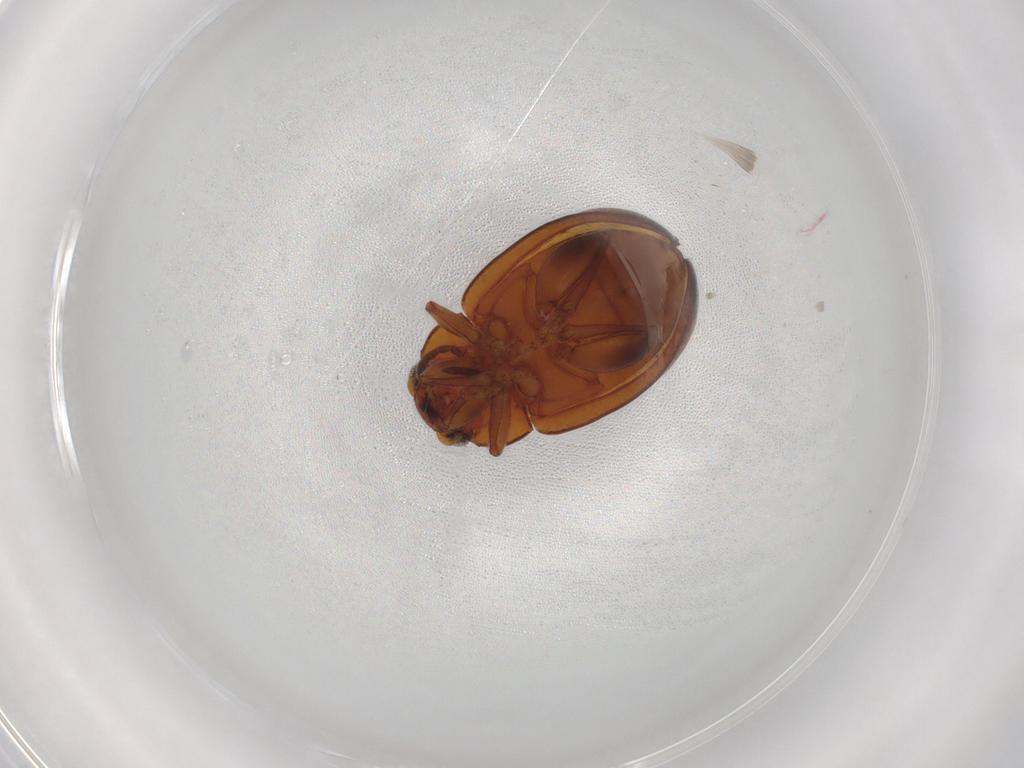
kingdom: Animalia
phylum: Arthropoda
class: Insecta
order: Coleoptera
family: Chrysomelidae
